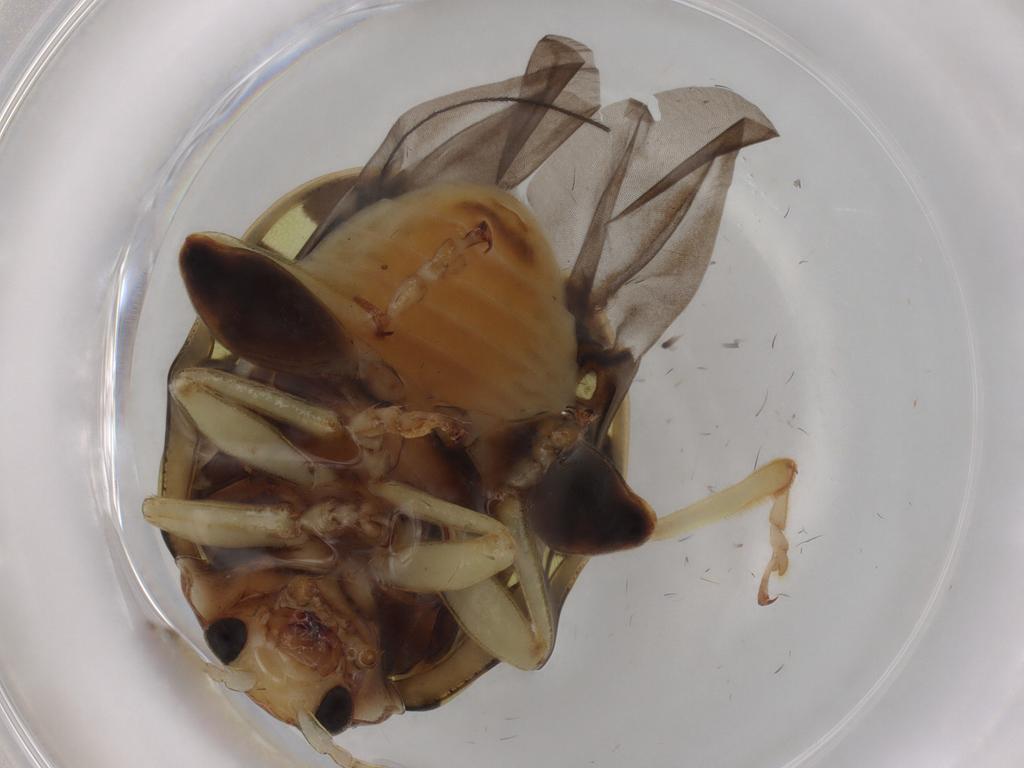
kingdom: Animalia
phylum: Arthropoda
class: Insecta
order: Coleoptera
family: Chrysomelidae
